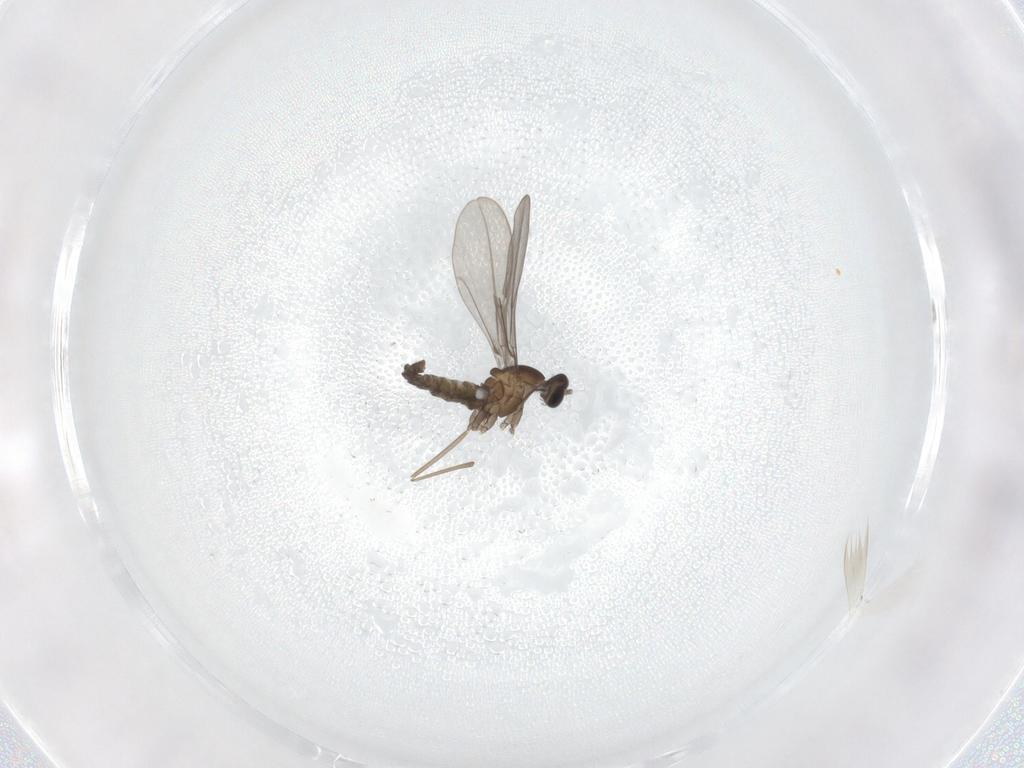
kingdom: Animalia
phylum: Arthropoda
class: Insecta
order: Diptera
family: Cecidomyiidae
